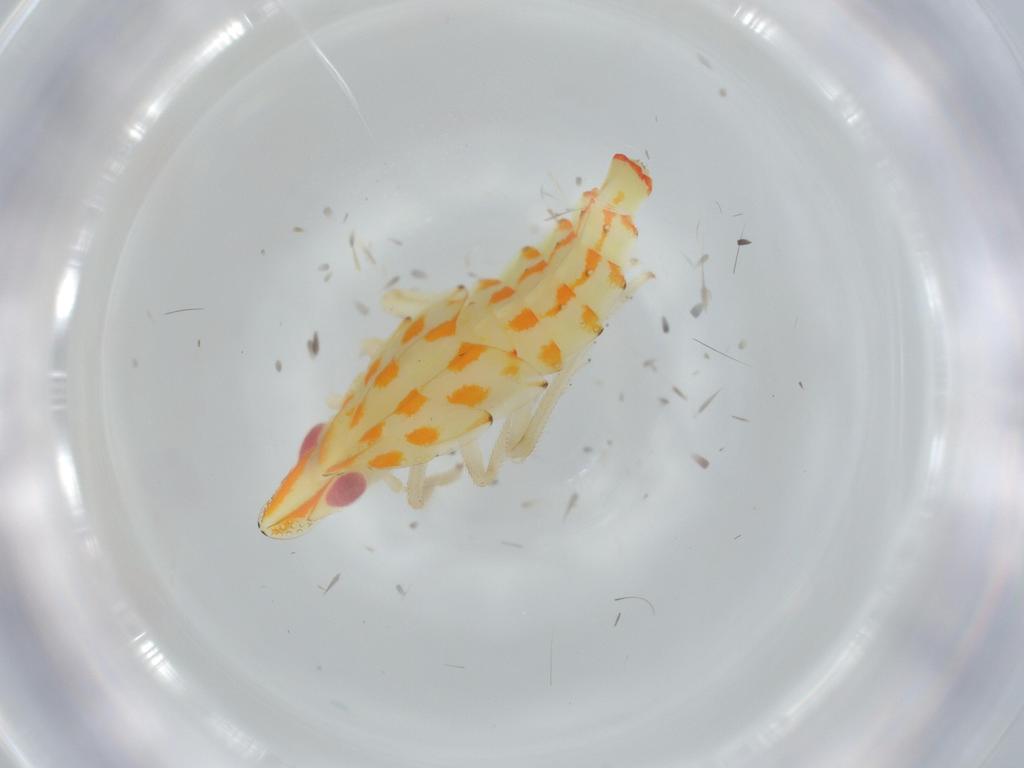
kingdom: Animalia
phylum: Arthropoda
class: Insecta
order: Hemiptera
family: Tropiduchidae
